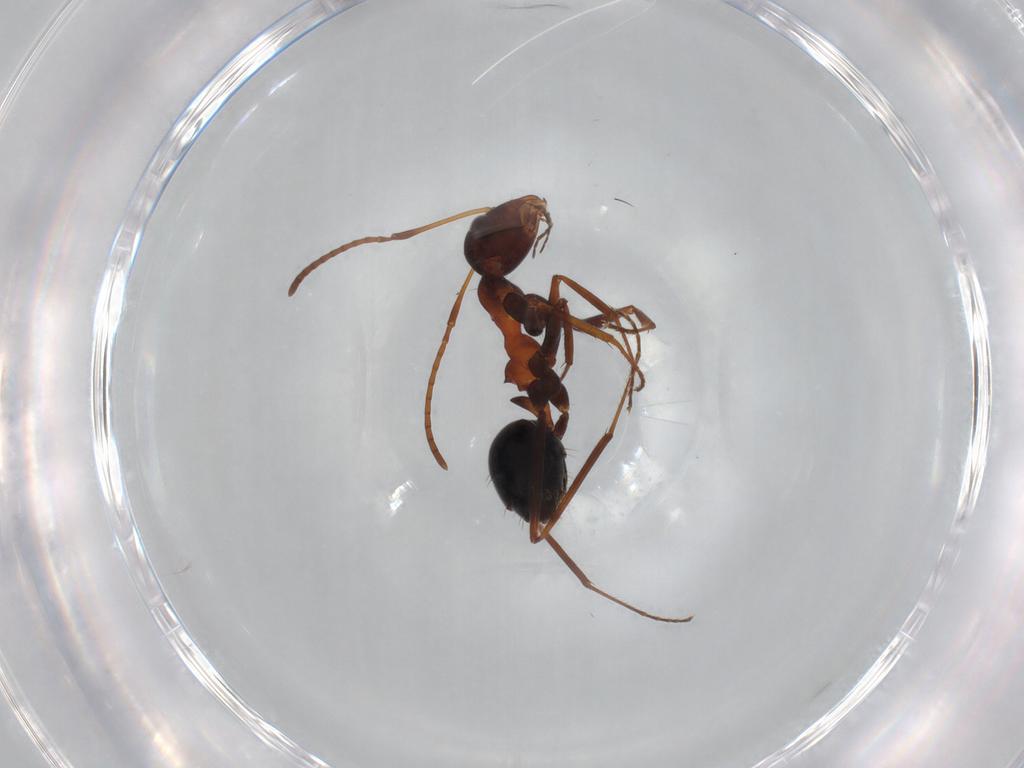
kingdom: Animalia
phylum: Arthropoda
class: Insecta
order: Hymenoptera
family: Formicidae
